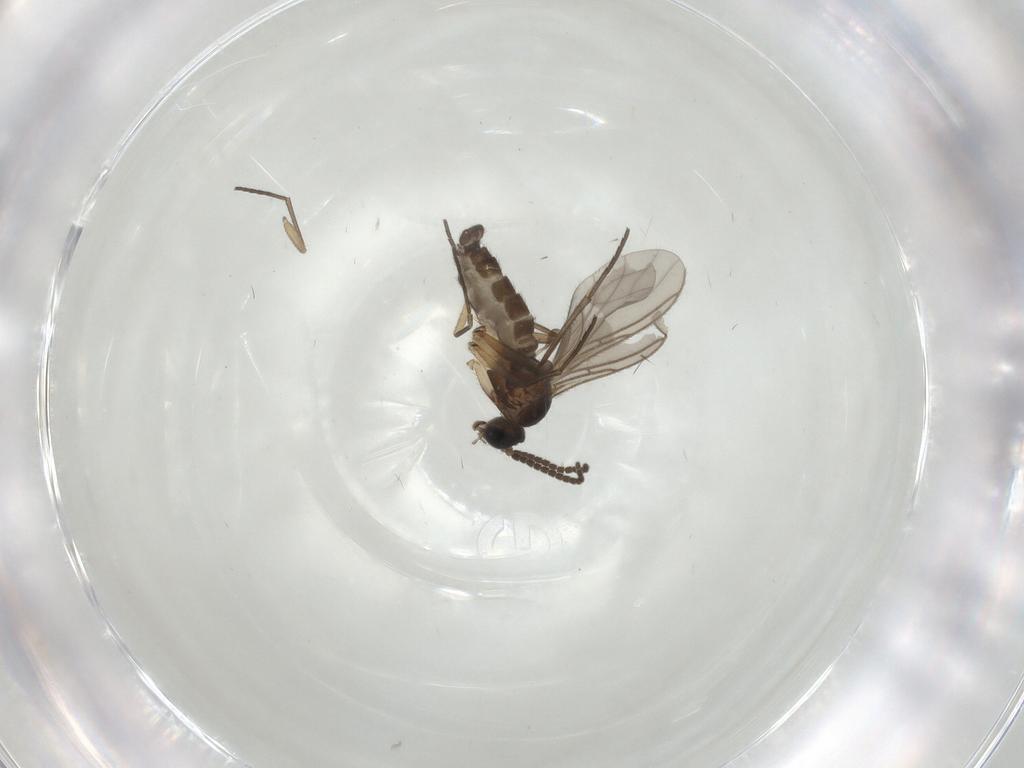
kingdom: Animalia
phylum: Arthropoda
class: Insecta
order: Diptera
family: Sciaridae
